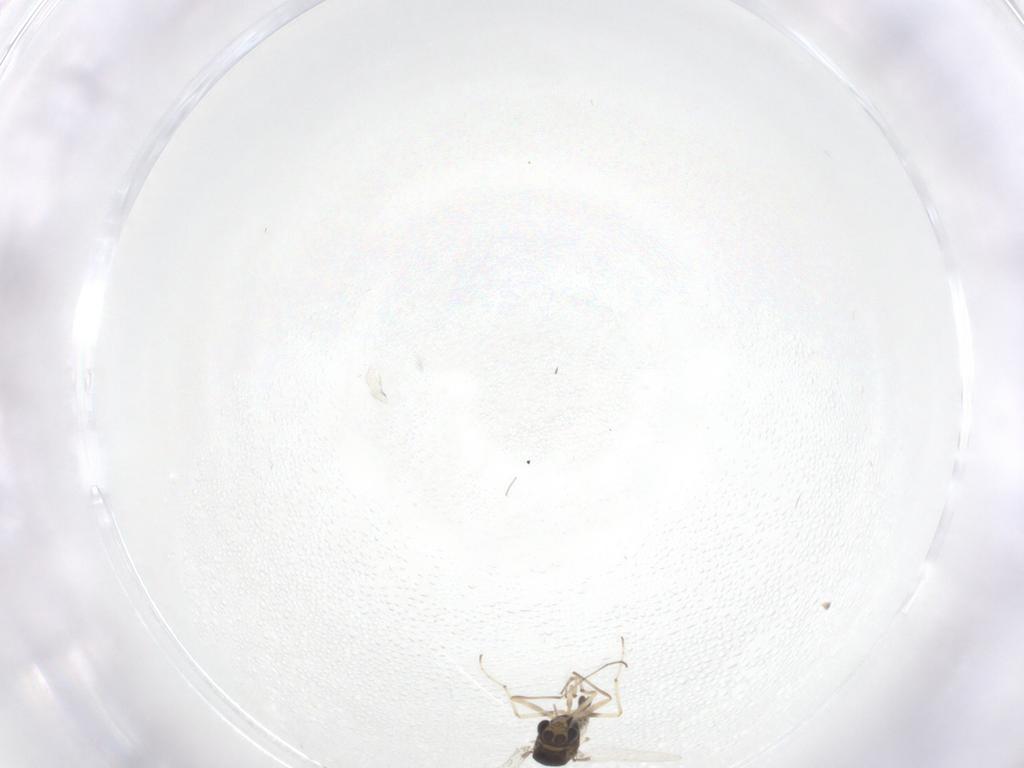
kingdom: Animalia
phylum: Arthropoda
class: Insecta
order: Diptera
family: Chironomidae
